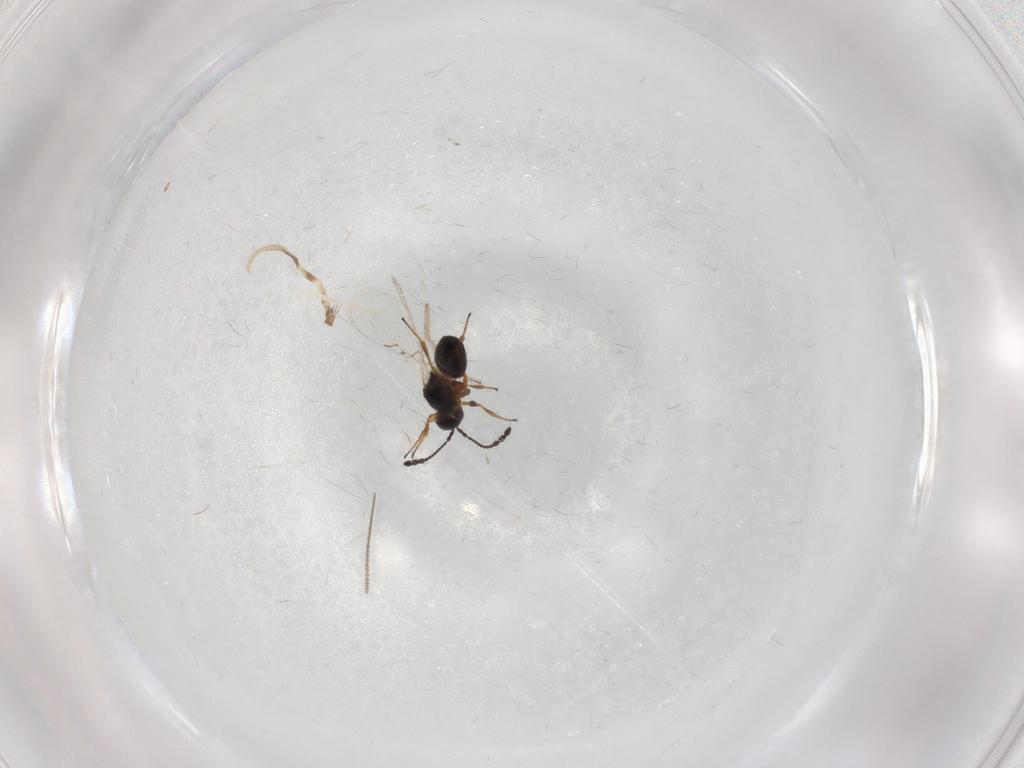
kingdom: Animalia
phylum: Arthropoda
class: Insecta
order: Hymenoptera
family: Figitidae
